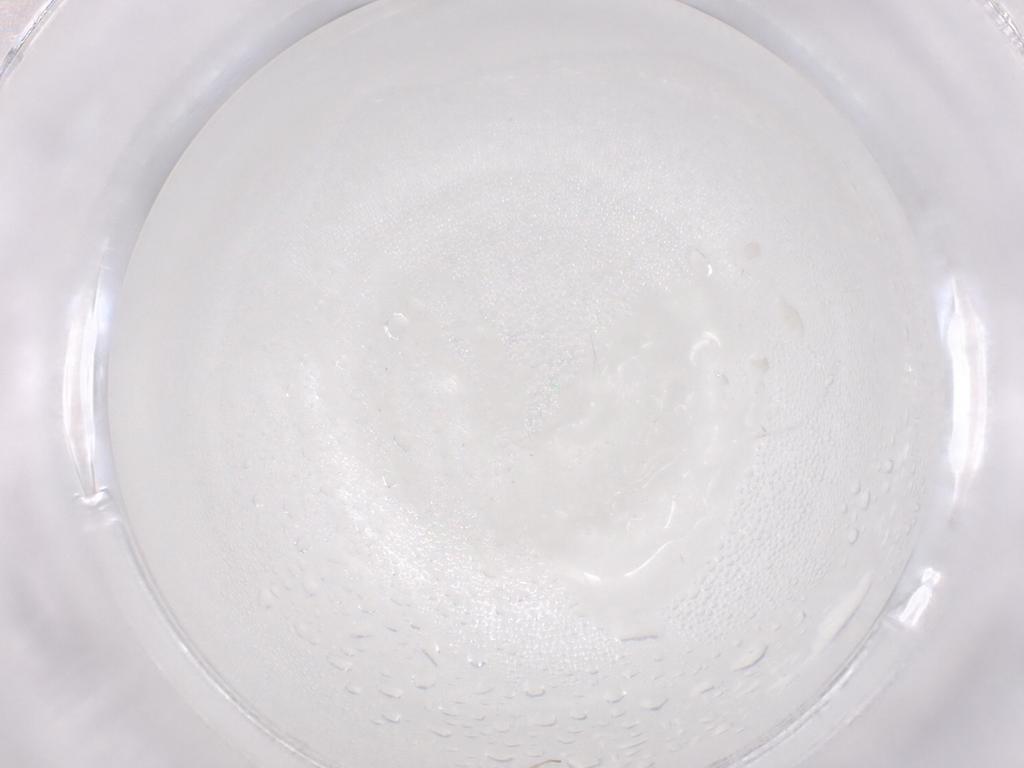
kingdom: Animalia
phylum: Arthropoda
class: Insecta
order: Diptera
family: Cecidomyiidae
